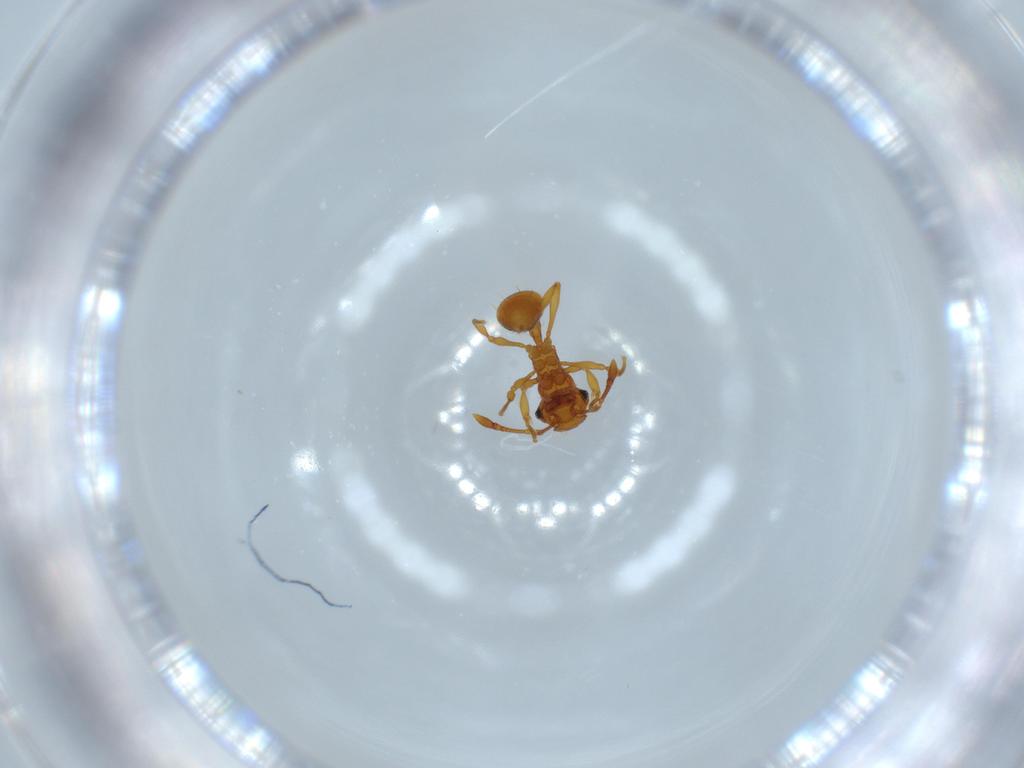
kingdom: Animalia
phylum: Arthropoda
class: Insecta
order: Hymenoptera
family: Formicidae
